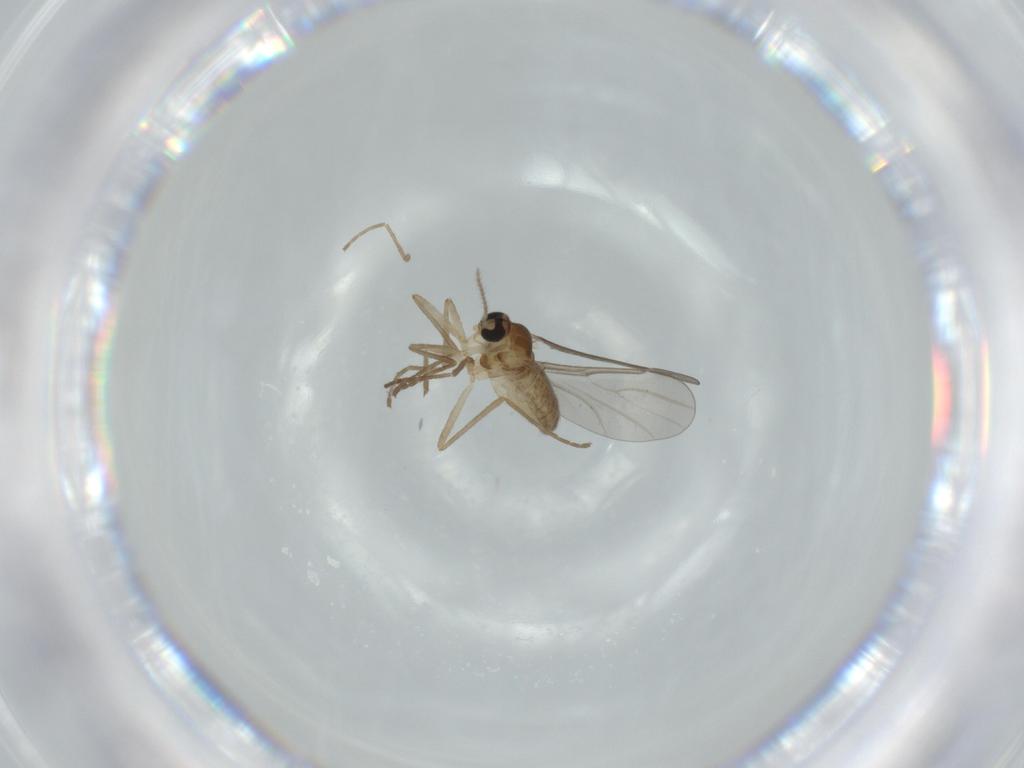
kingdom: Animalia
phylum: Arthropoda
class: Insecta
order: Diptera
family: Cecidomyiidae
